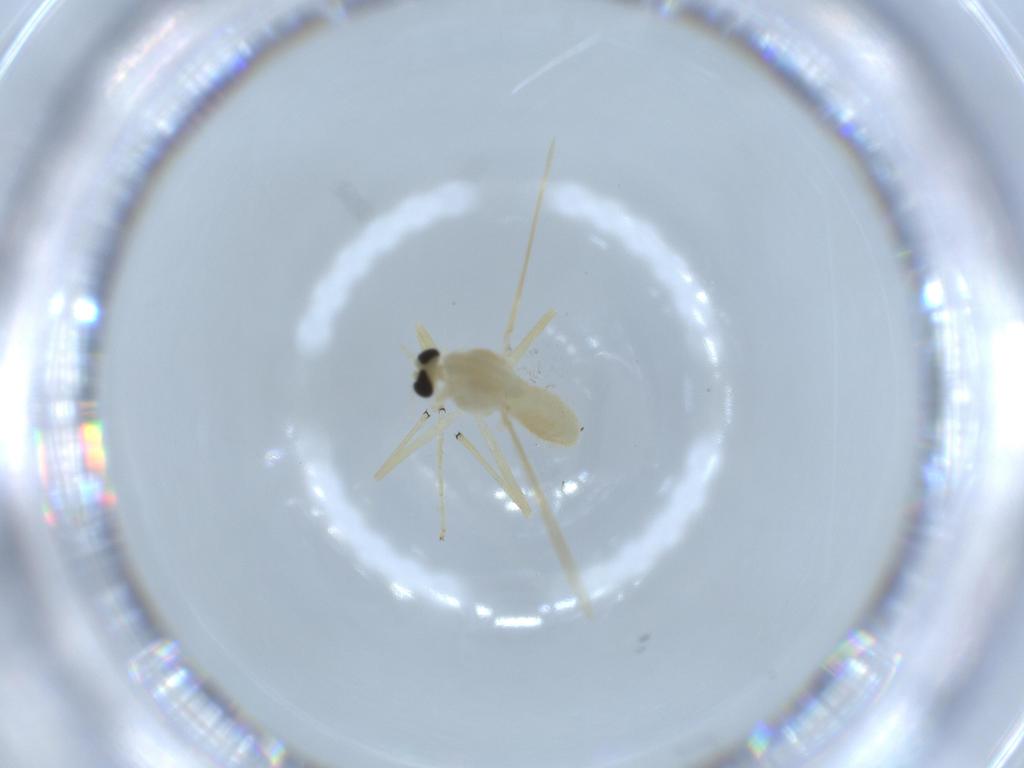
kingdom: Animalia
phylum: Arthropoda
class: Insecta
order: Diptera
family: Chironomidae
